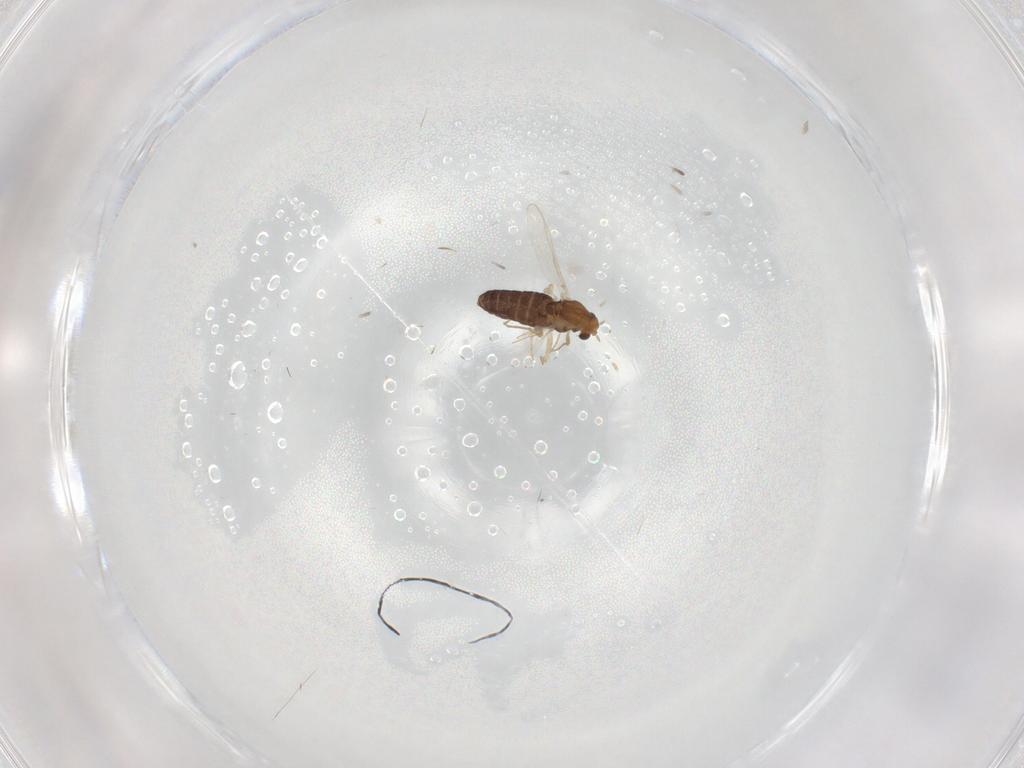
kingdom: Animalia
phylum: Arthropoda
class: Insecta
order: Diptera
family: Chironomidae
